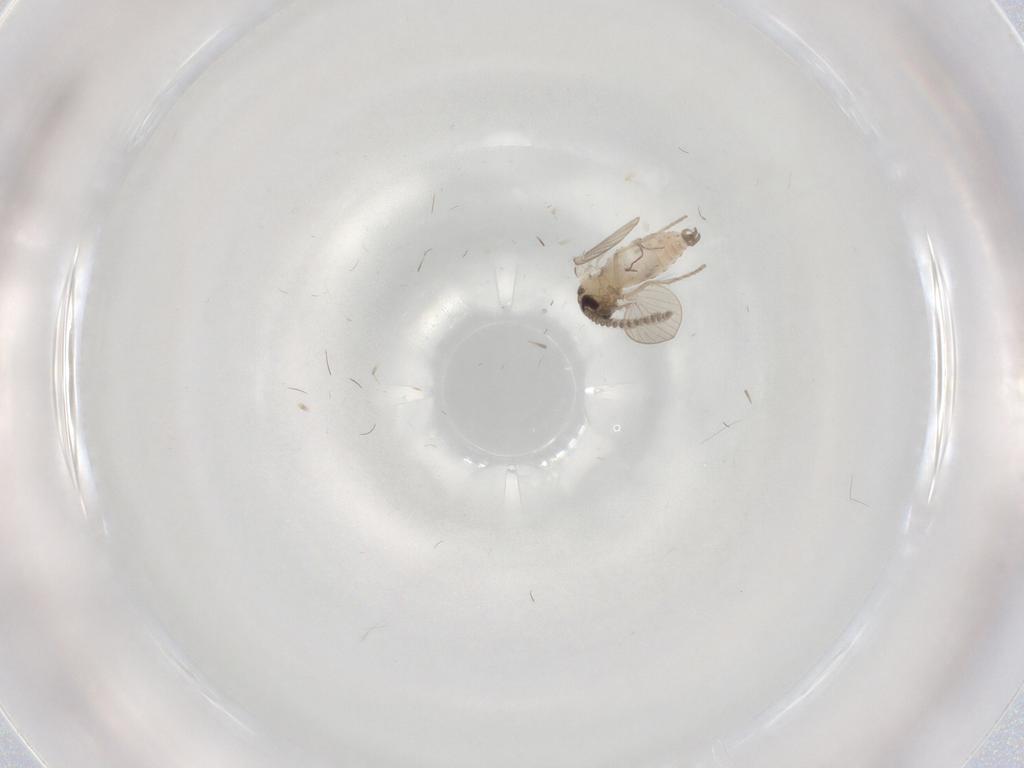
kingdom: Animalia
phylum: Arthropoda
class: Insecta
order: Diptera
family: Psychodidae
